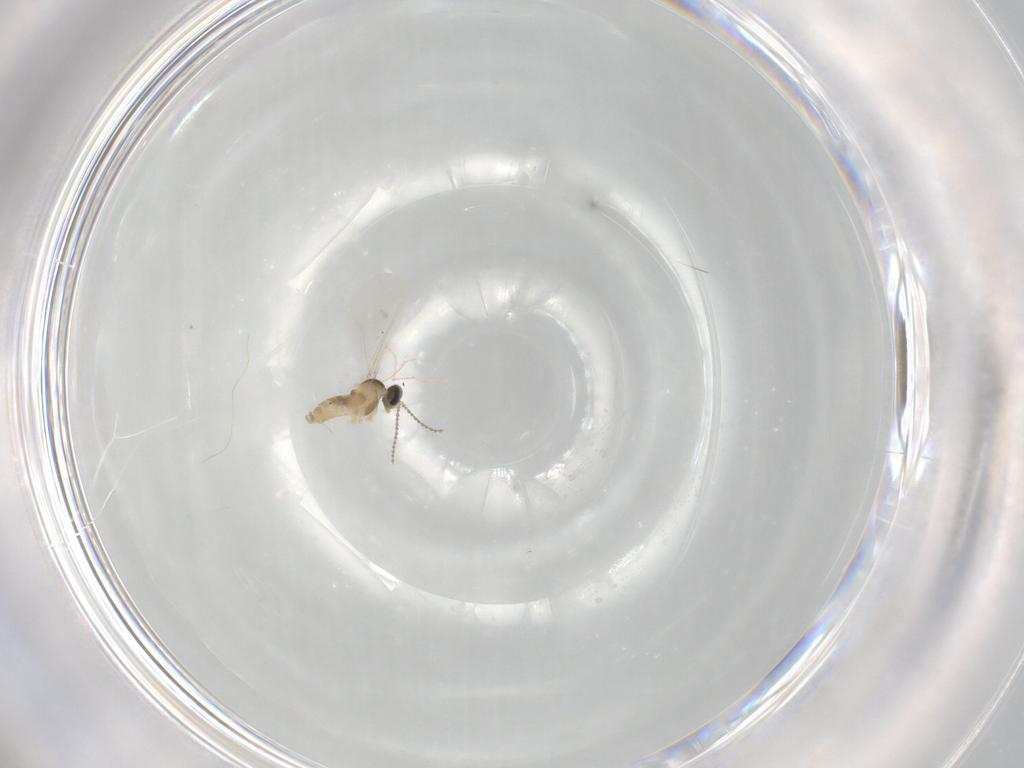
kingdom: Animalia
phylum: Arthropoda
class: Insecta
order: Diptera
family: Cecidomyiidae
